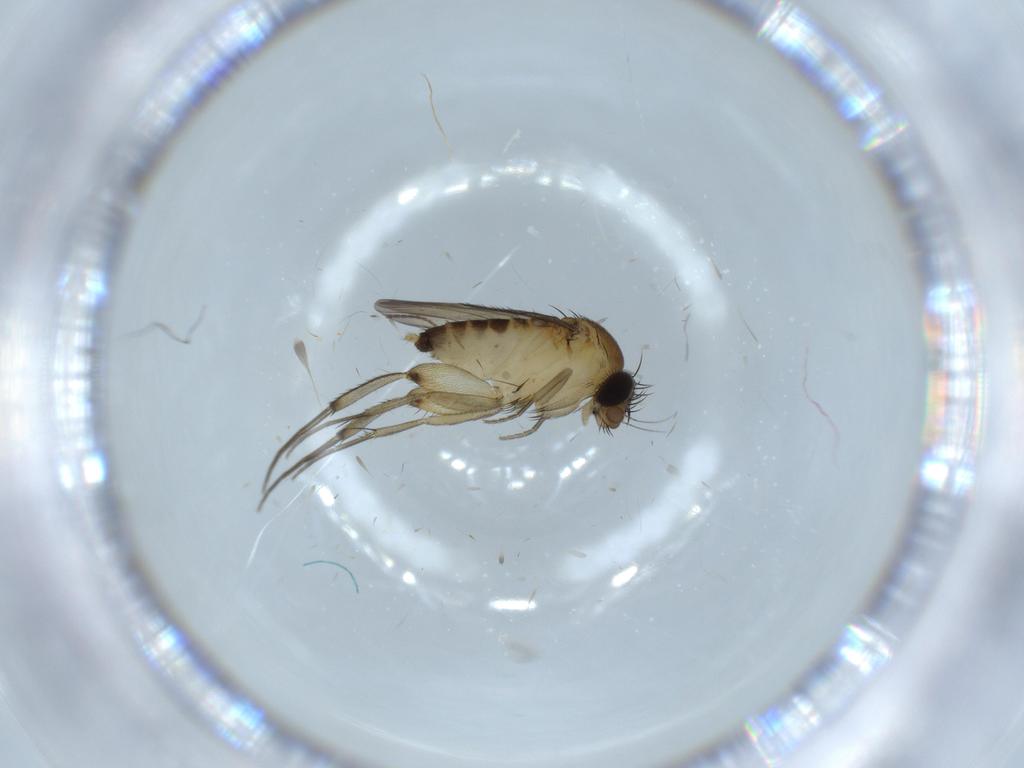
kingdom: Animalia
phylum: Arthropoda
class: Insecta
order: Diptera
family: Phoridae
